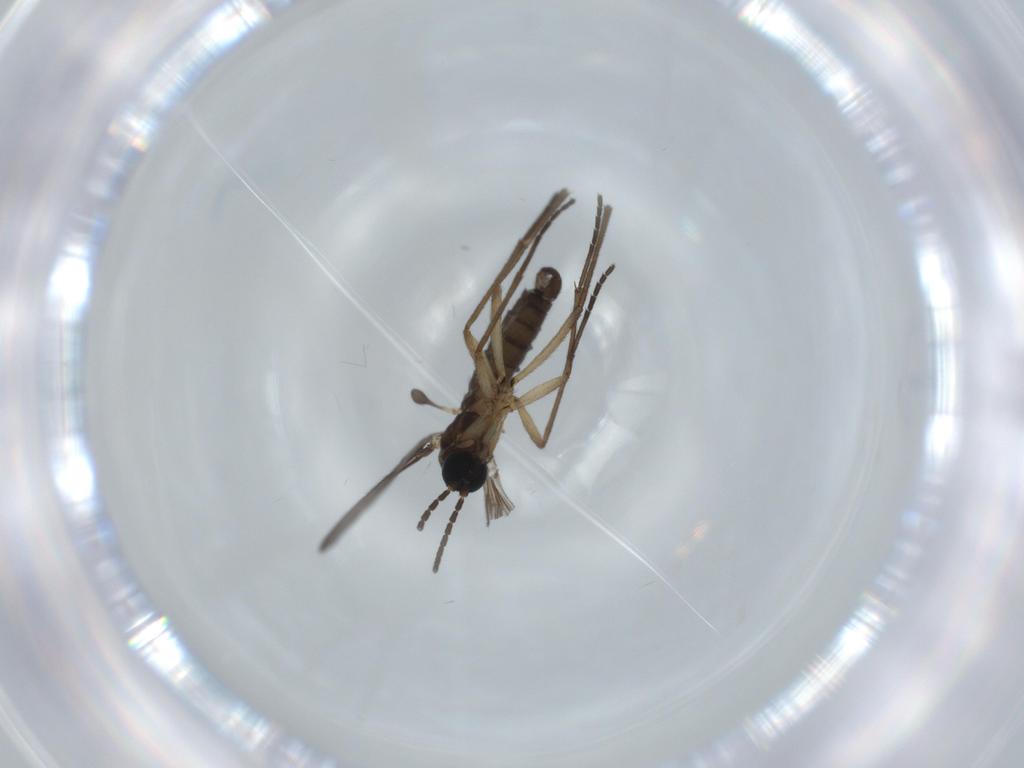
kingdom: Animalia
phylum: Arthropoda
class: Insecta
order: Diptera
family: Sciaridae
